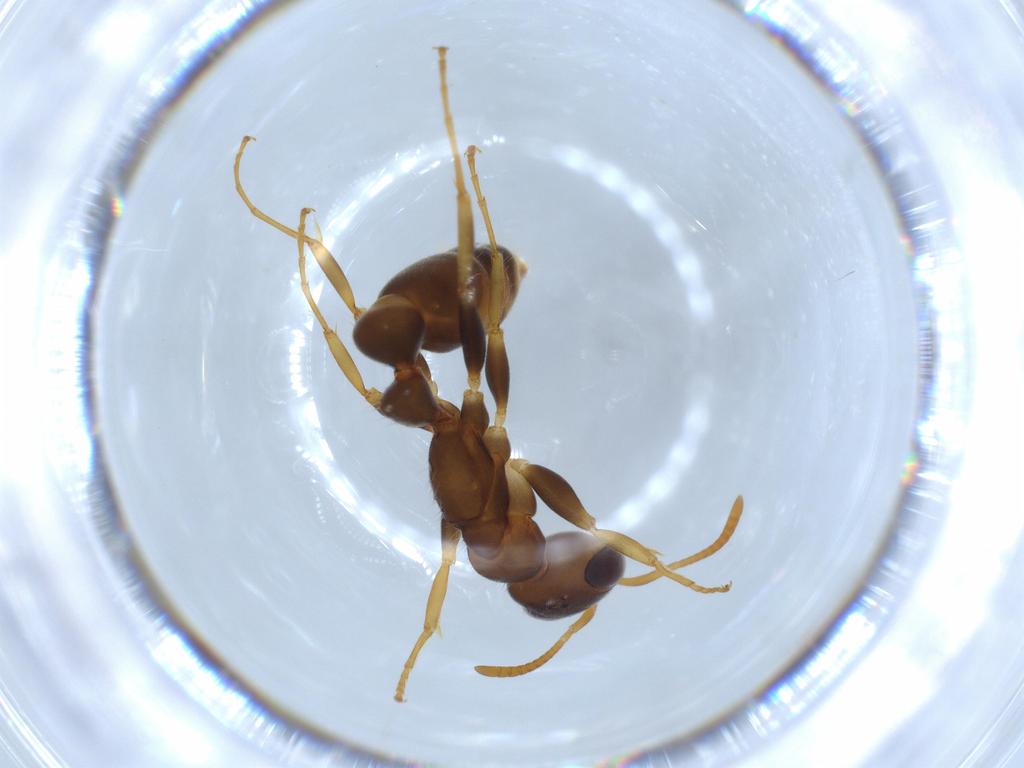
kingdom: Animalia
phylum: Arthropoda
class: Insecta
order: Hymenoptera
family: Formicidae
